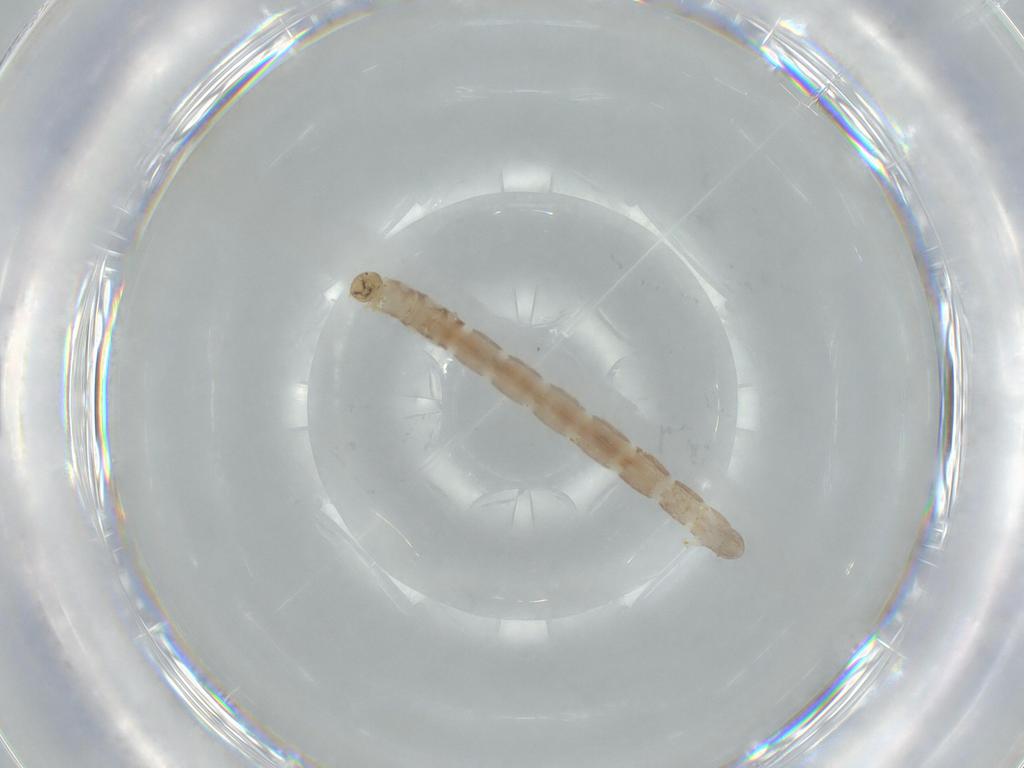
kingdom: Animalia
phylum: Arthropoda
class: Insecta
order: Diptera
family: Chironomidae
